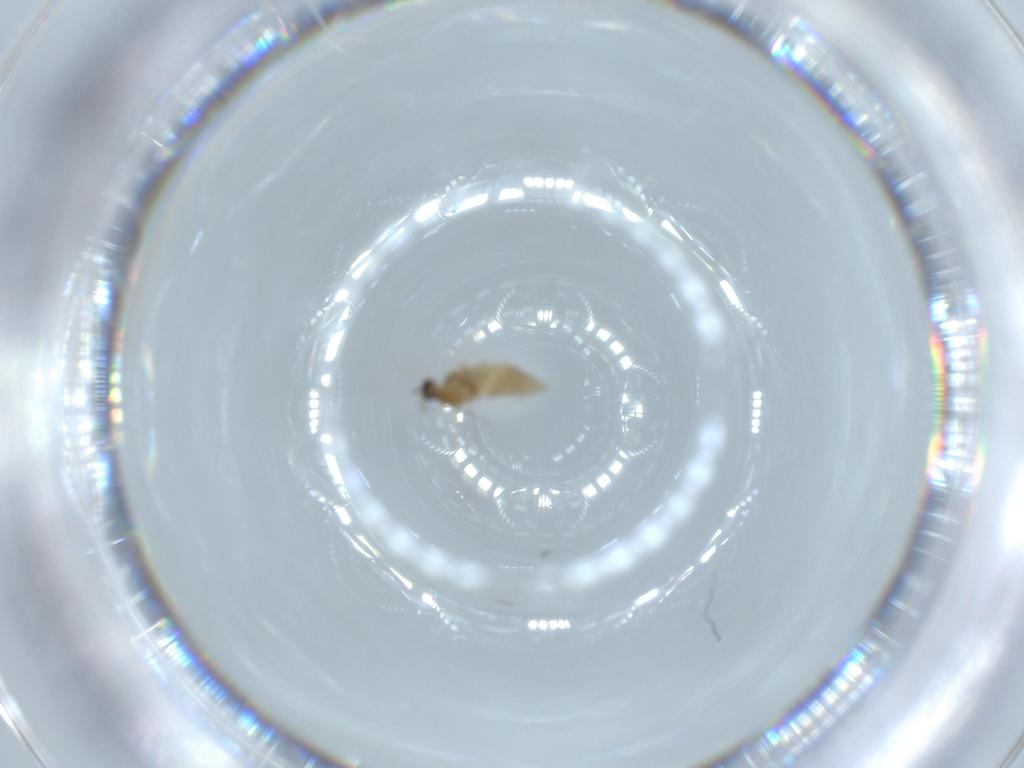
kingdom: Animalia
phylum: Arthropoda
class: Insecta
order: Diptera
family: Cecidomyiidae
